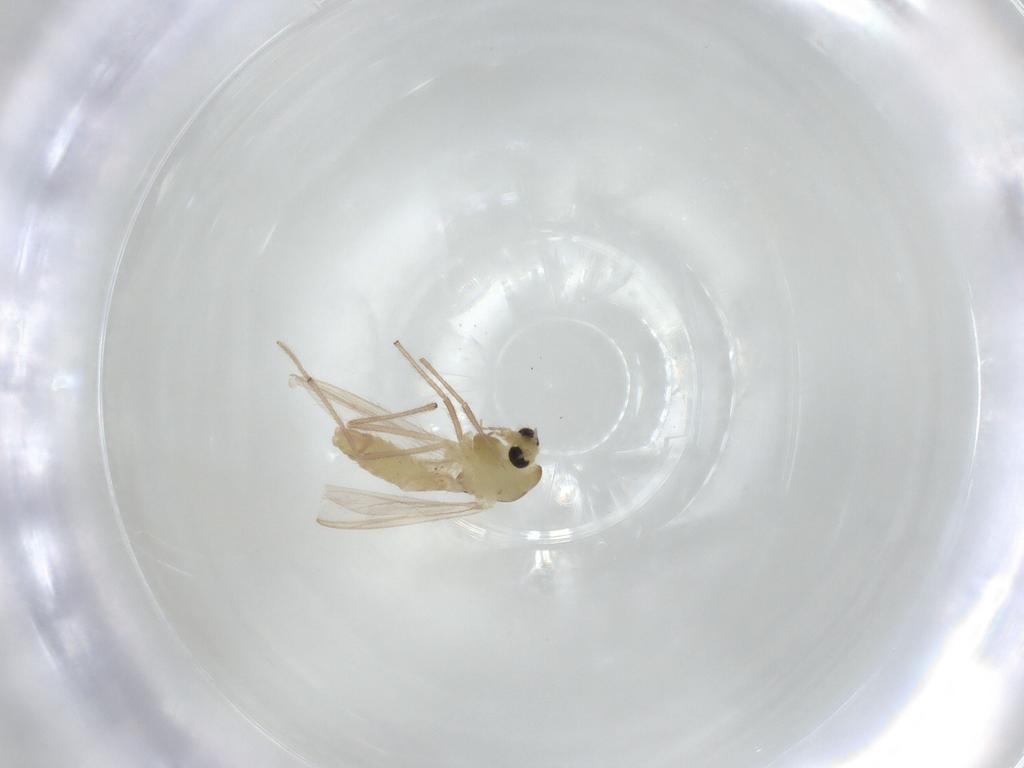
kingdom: Animalia
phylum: Arthropoda
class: Insecta
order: Diptera
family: Chironomidae
